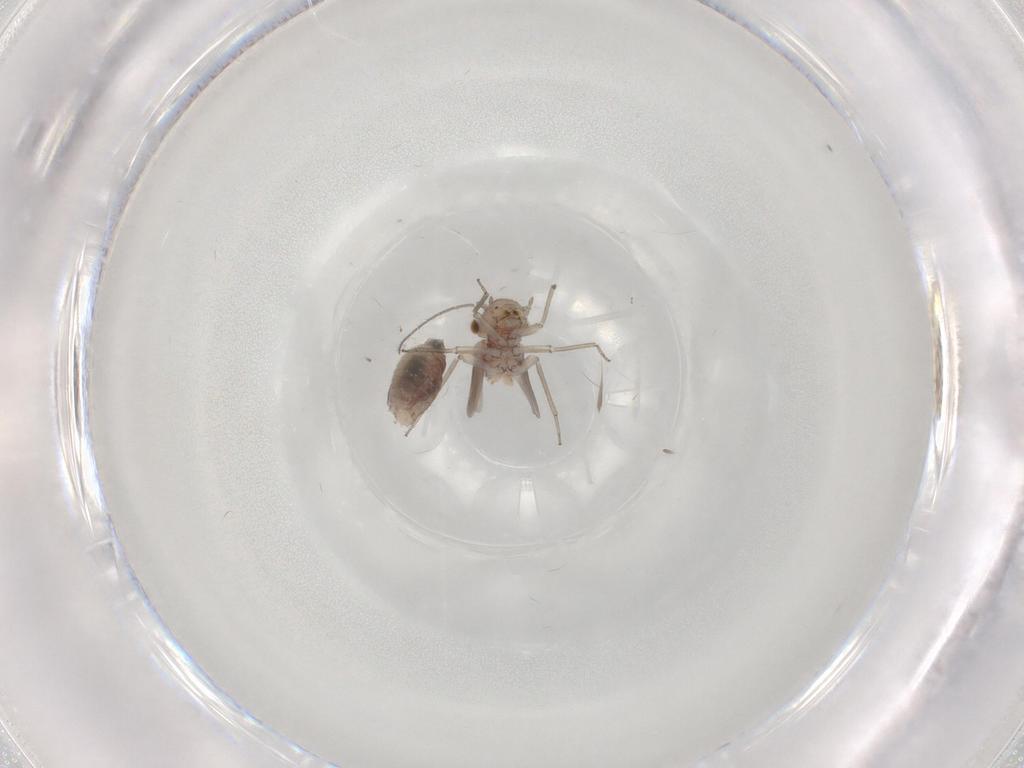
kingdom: Animalia
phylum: Arthropoda
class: Insecta
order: Psocodea
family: Lachesillidae
